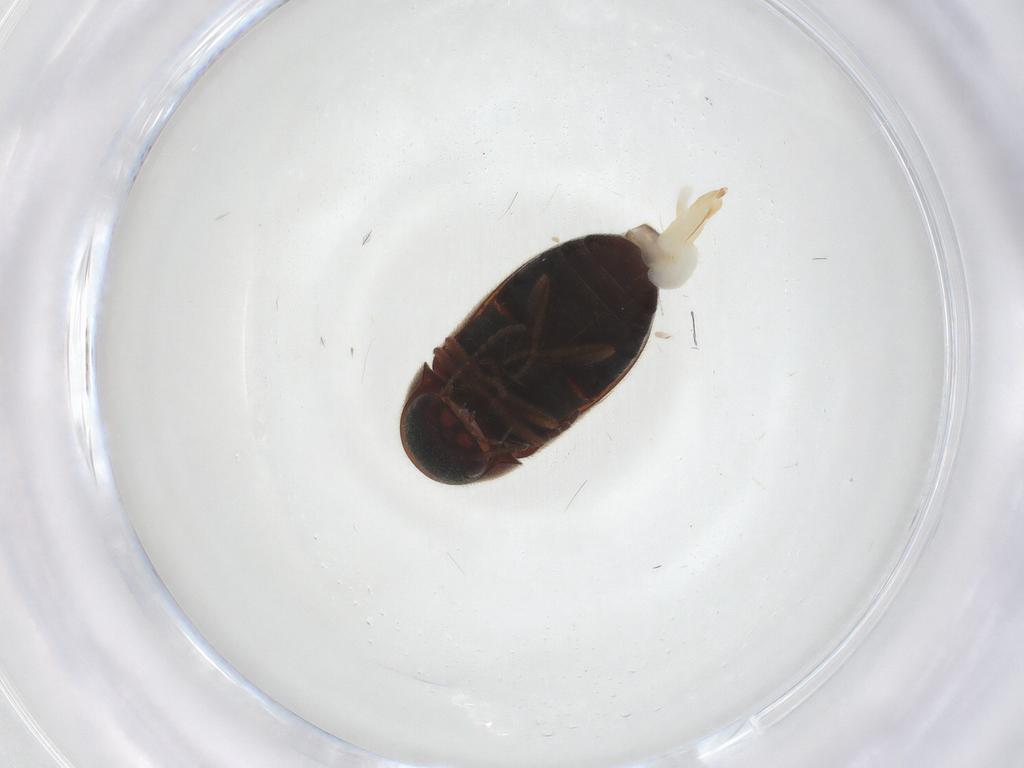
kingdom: Animalia
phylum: Arthropoda
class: Insecta
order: Coleoptera
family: Ptinidae
